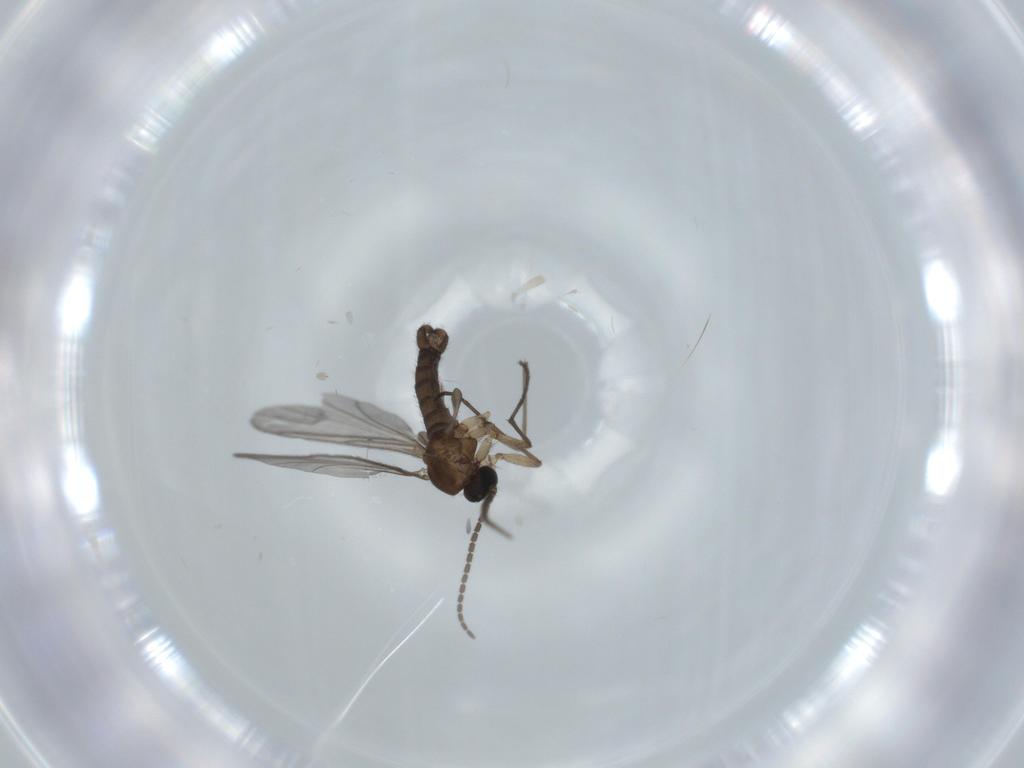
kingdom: Animalia
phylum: Arthropoda
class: Insecta
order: Diptera
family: Sciaridae
